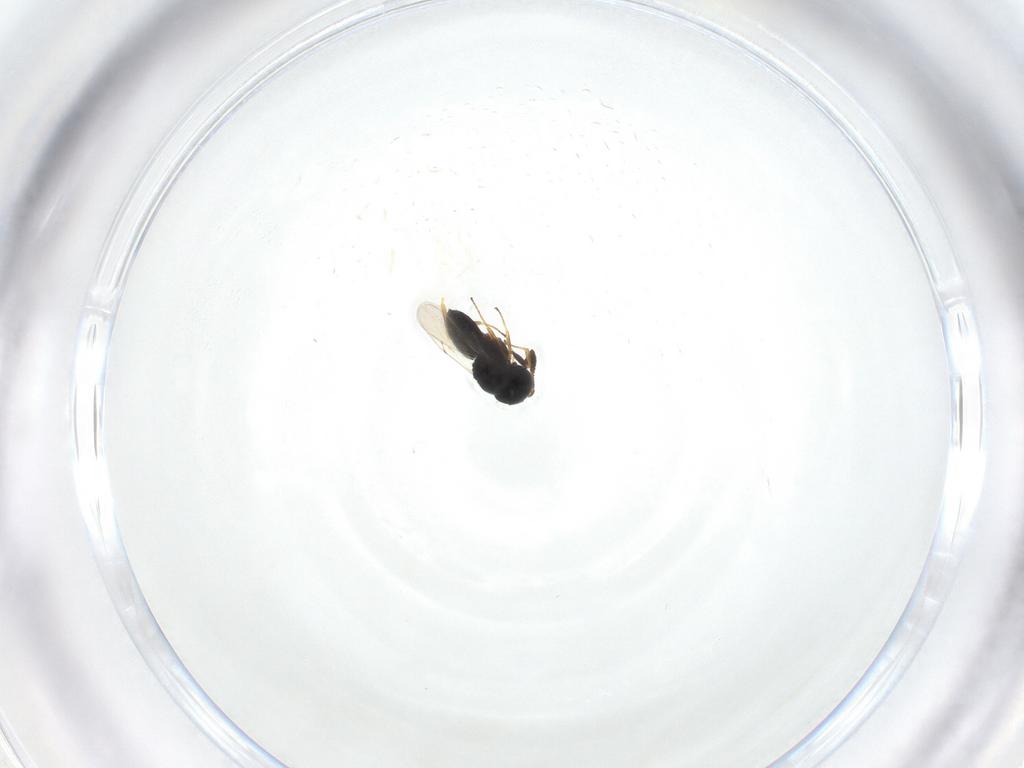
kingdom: Animalia
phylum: Arthropoda
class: Insecta
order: Hymenoptera
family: Scelionidae
